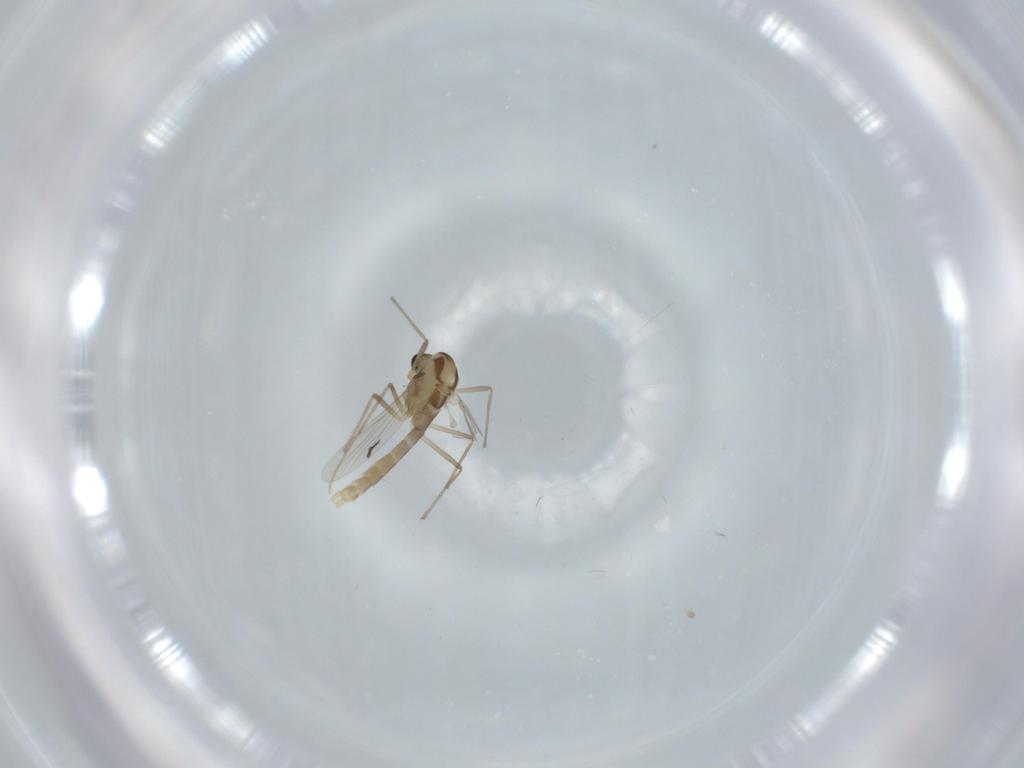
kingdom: Animalia
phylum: Arthropoda
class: Insecta
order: Diptera
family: Chironomidae
